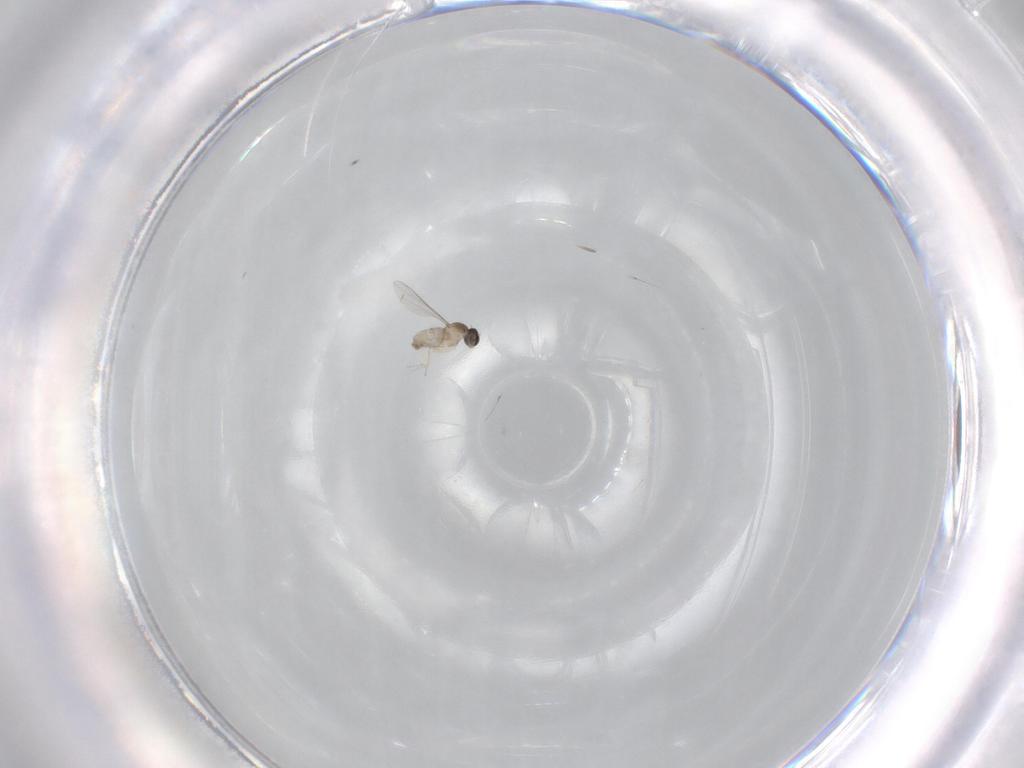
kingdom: Animalia
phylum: Arthropoda
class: Insecta
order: Diptera
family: Cecidomyiidae
